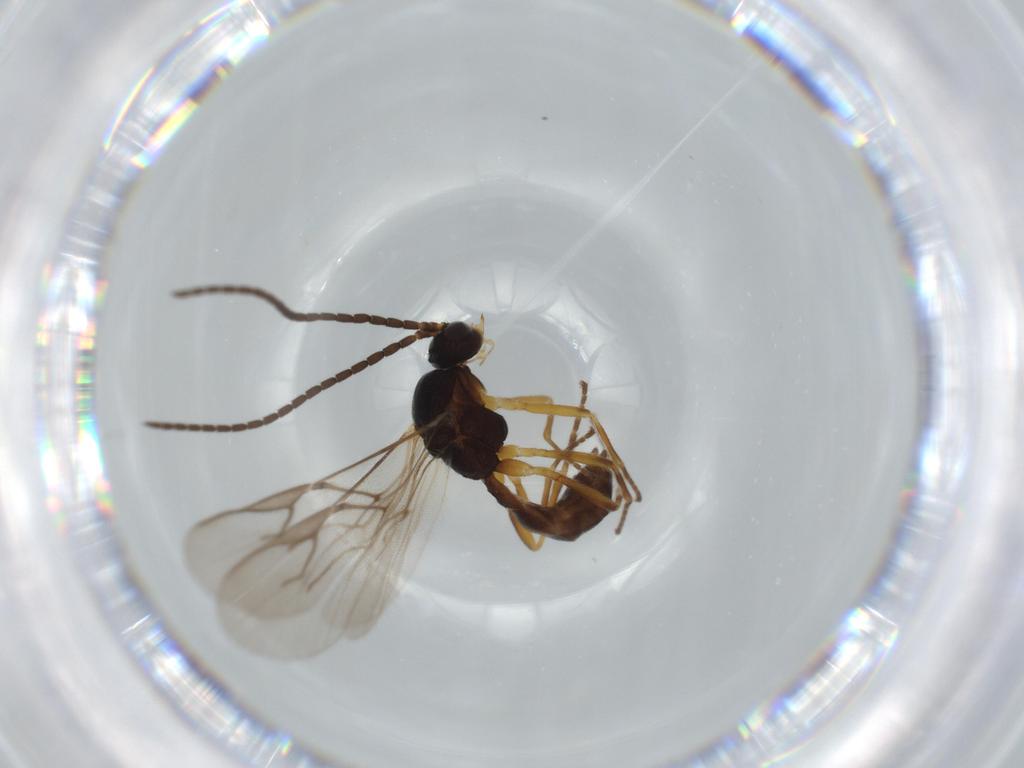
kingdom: Animalia
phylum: Arthropoda
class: Insecta
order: Hymenoptera
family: Braconidae
